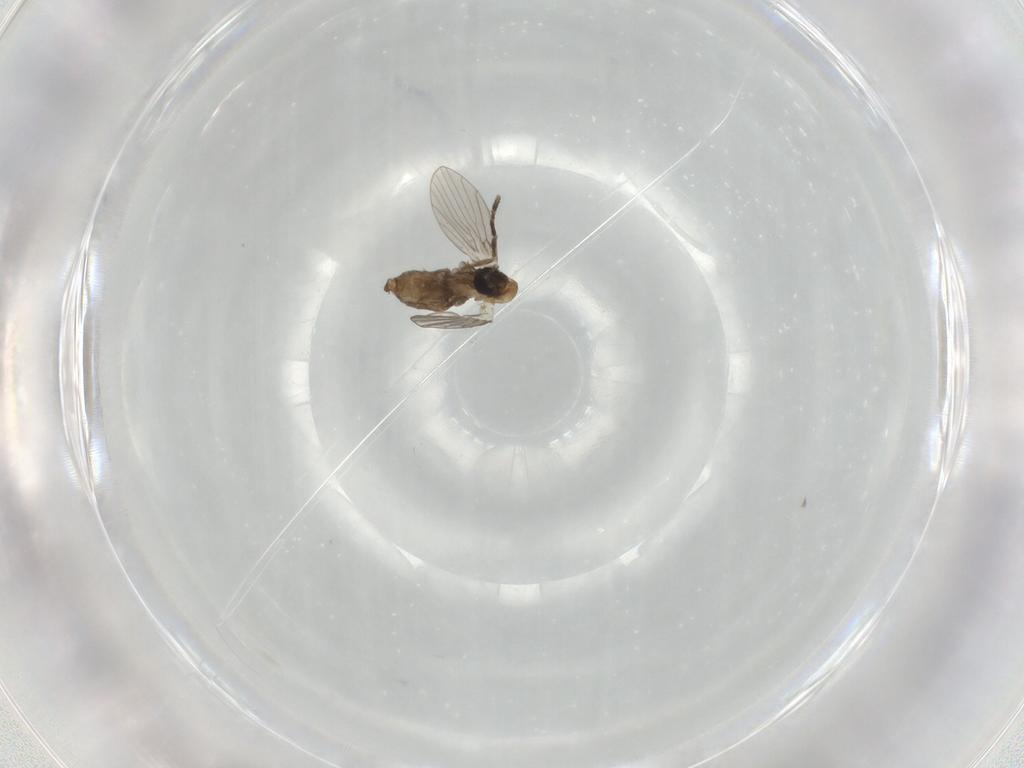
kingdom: Animalia
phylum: Arthropoda
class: Insecta
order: Diptera
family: Psychodidae
